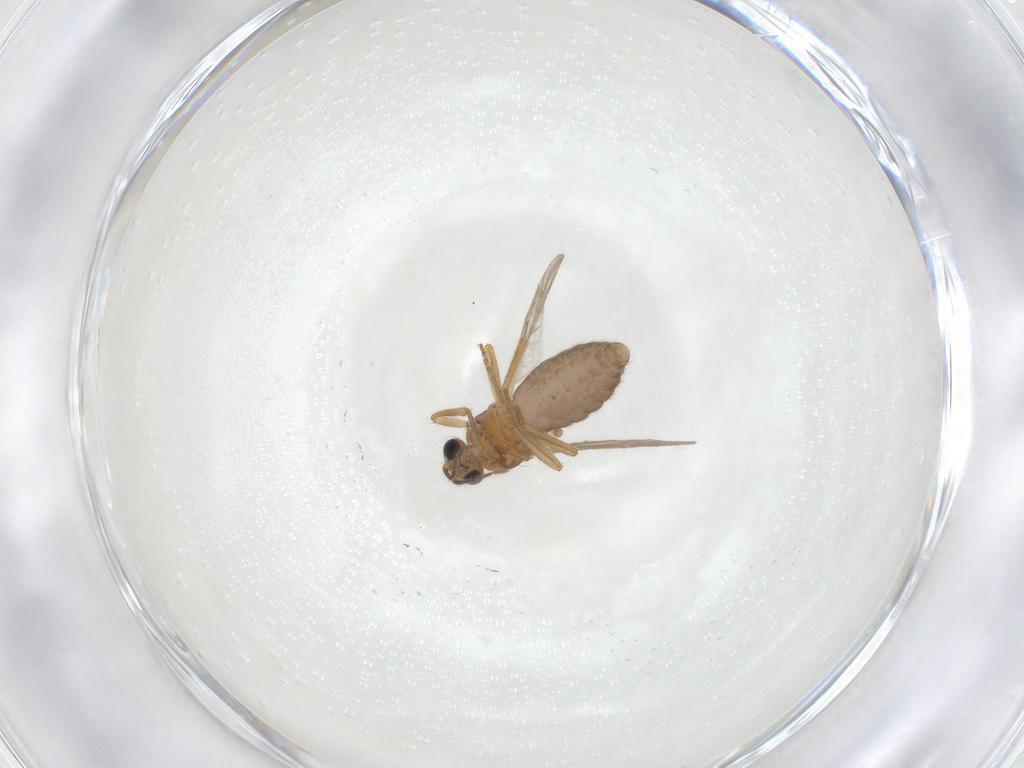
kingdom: Animalia
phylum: Arthropoda
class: Insecta
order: Diptera
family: Ceratopogonidae
